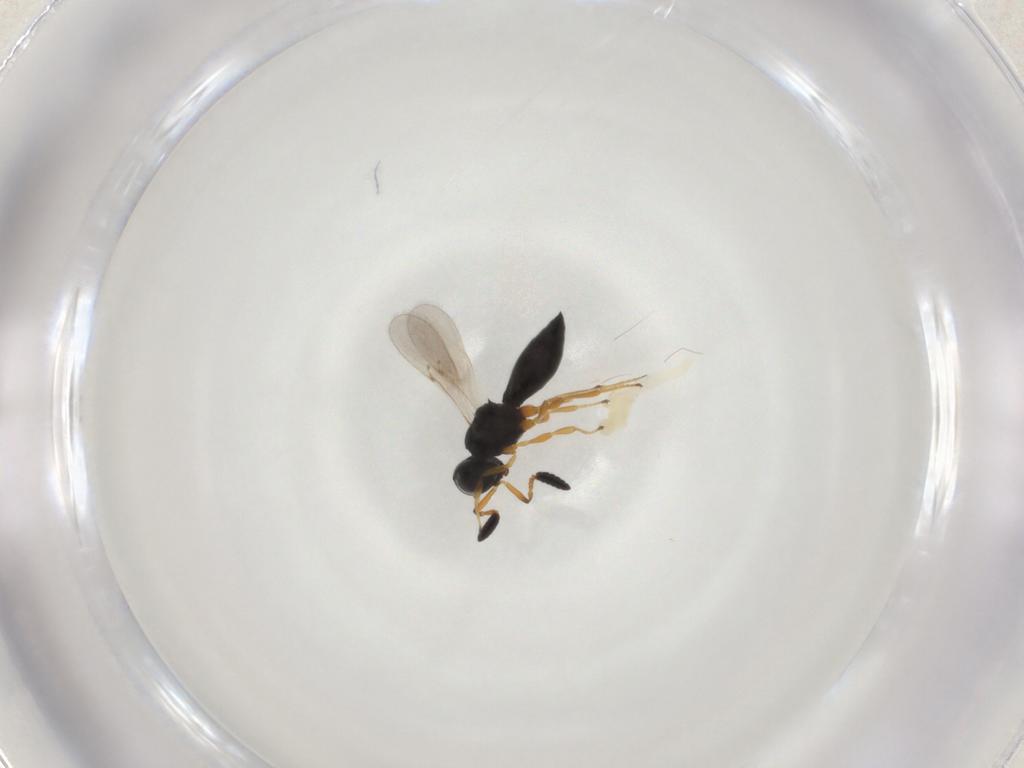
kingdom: Animalia
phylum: Arthropoda
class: Insecta
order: Hymenoptera
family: Scelionidae
